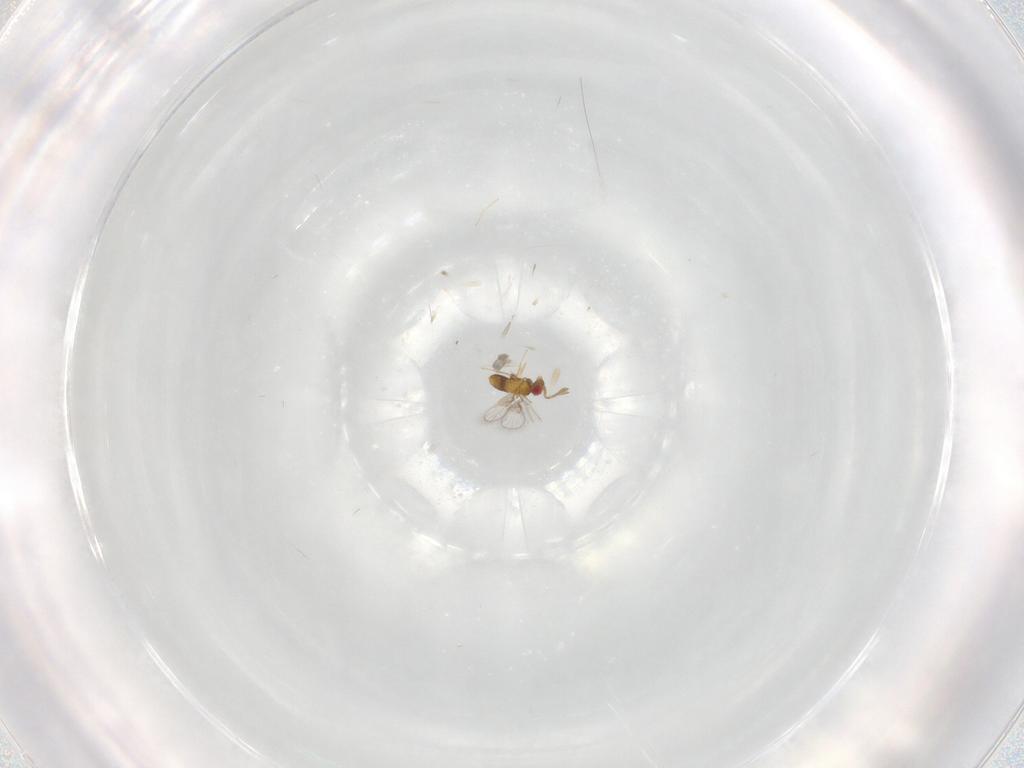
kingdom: Animalia
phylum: Arthropoda
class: Insecta
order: Hymenoptera
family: Trichogrammatidae
